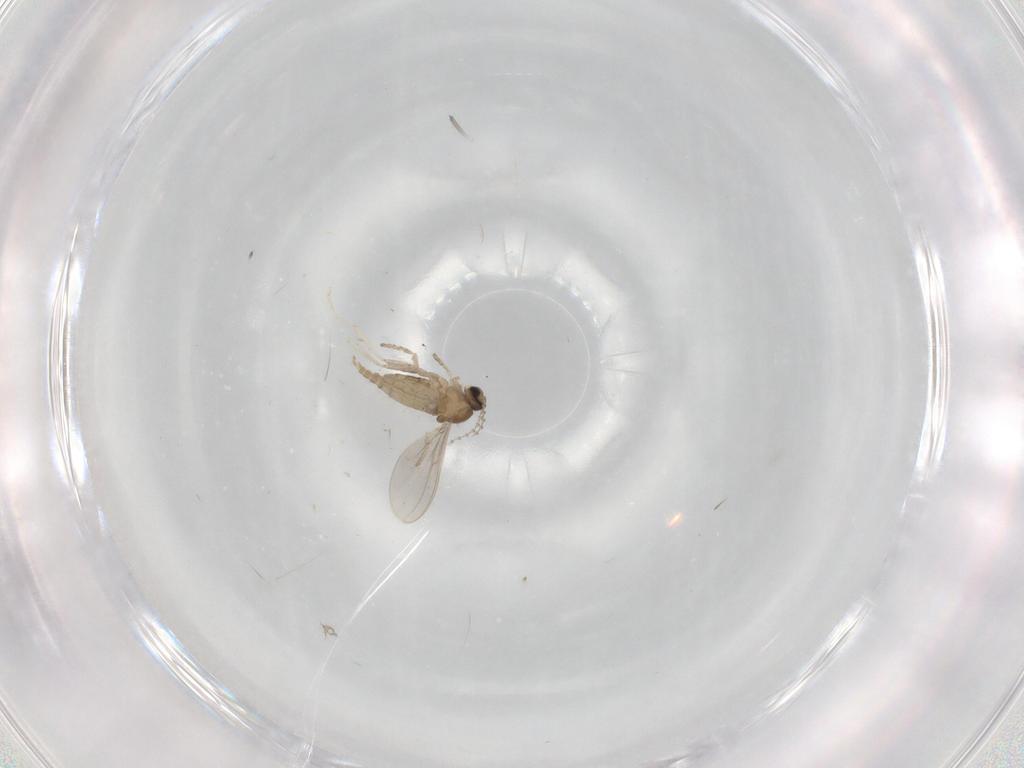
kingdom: Animalia
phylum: Arthropoda
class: Insecta
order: Diptera
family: Cecidomyiidae
